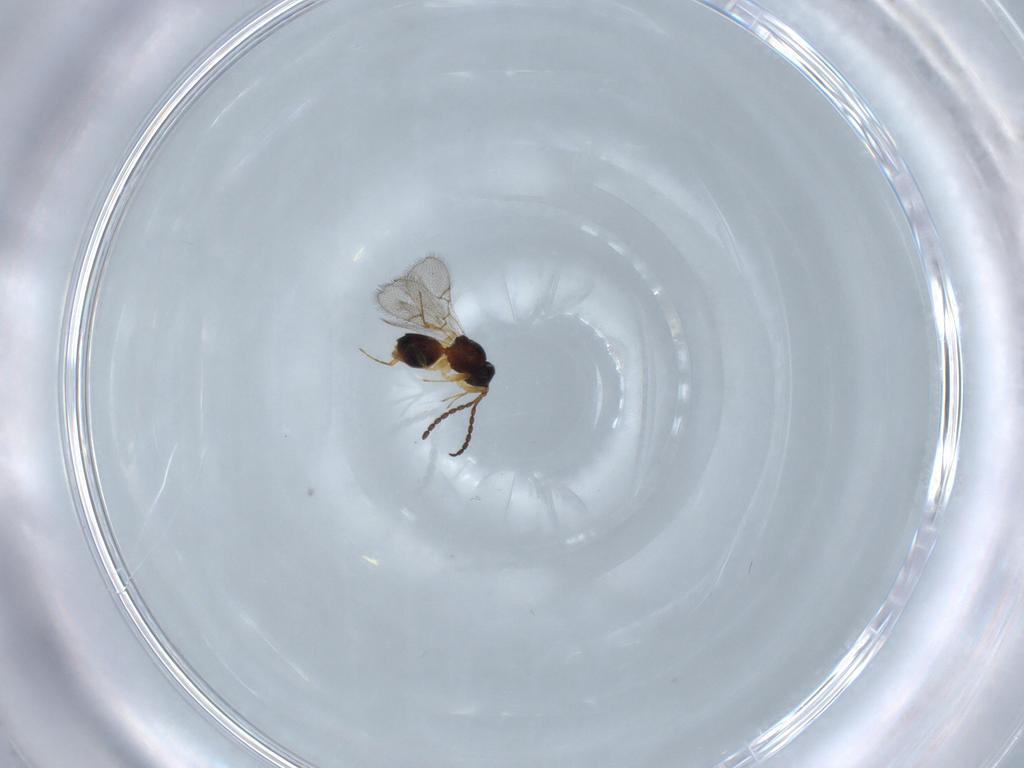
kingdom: Animalia
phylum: Arthropoda
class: Insecta
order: Hymenoptera
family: Figitidae
